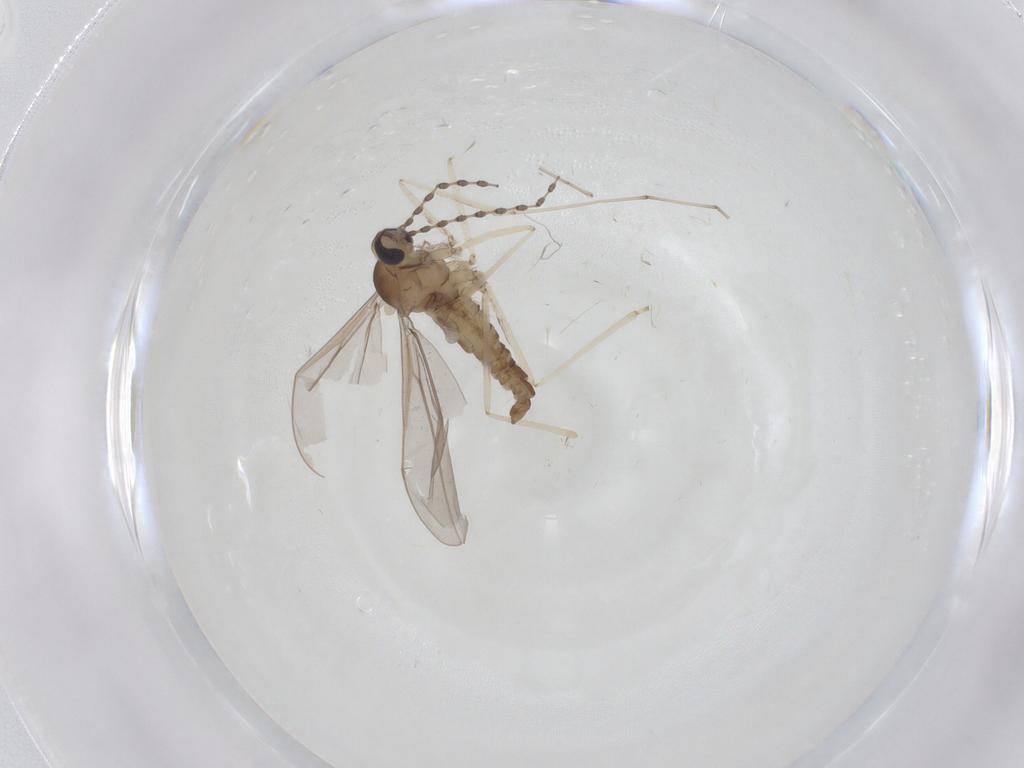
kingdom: Animalia
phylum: Arthropoda
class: Insecta
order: Diptera
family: Cecidomyiidae
